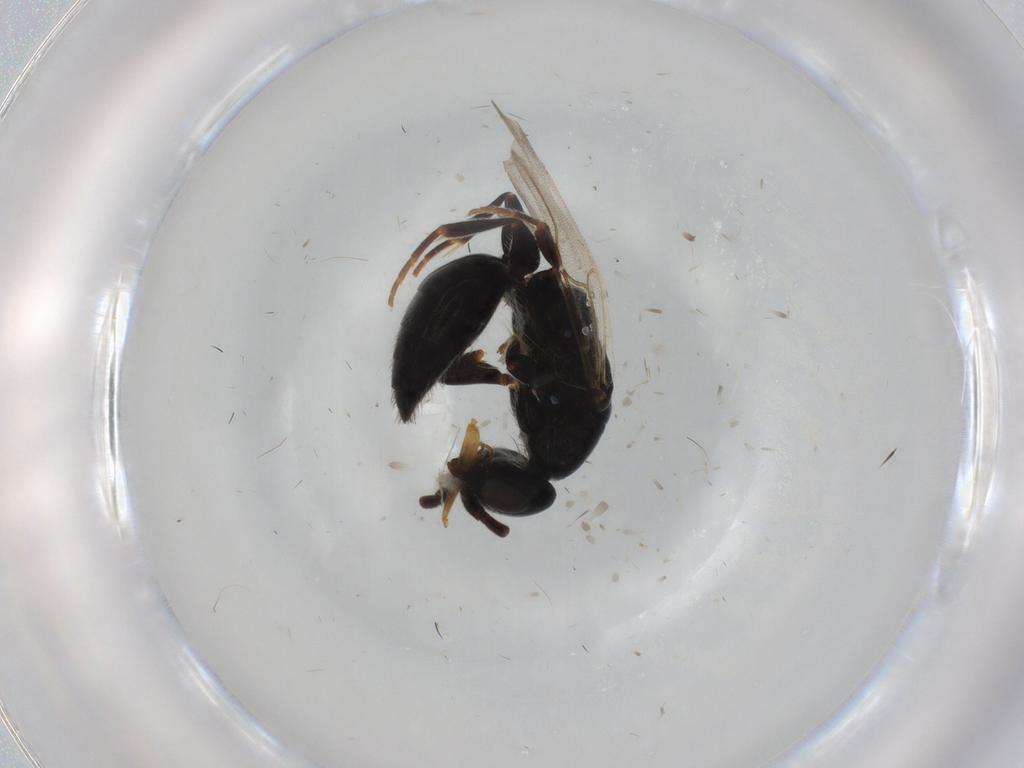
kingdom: Animalia
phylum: Arthropoda
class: Insecta
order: Hymenoptera
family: Bethylidae
